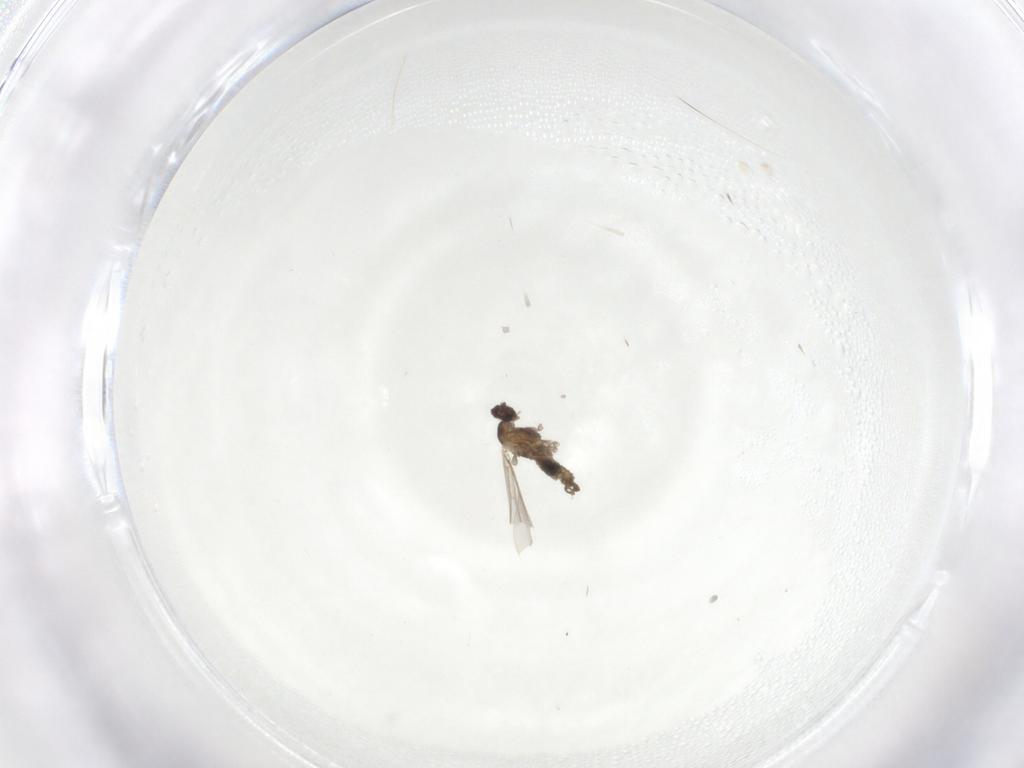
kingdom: Animalia
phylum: Arthropoda
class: Insecta
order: Diptera
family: Cecidomyiidae
